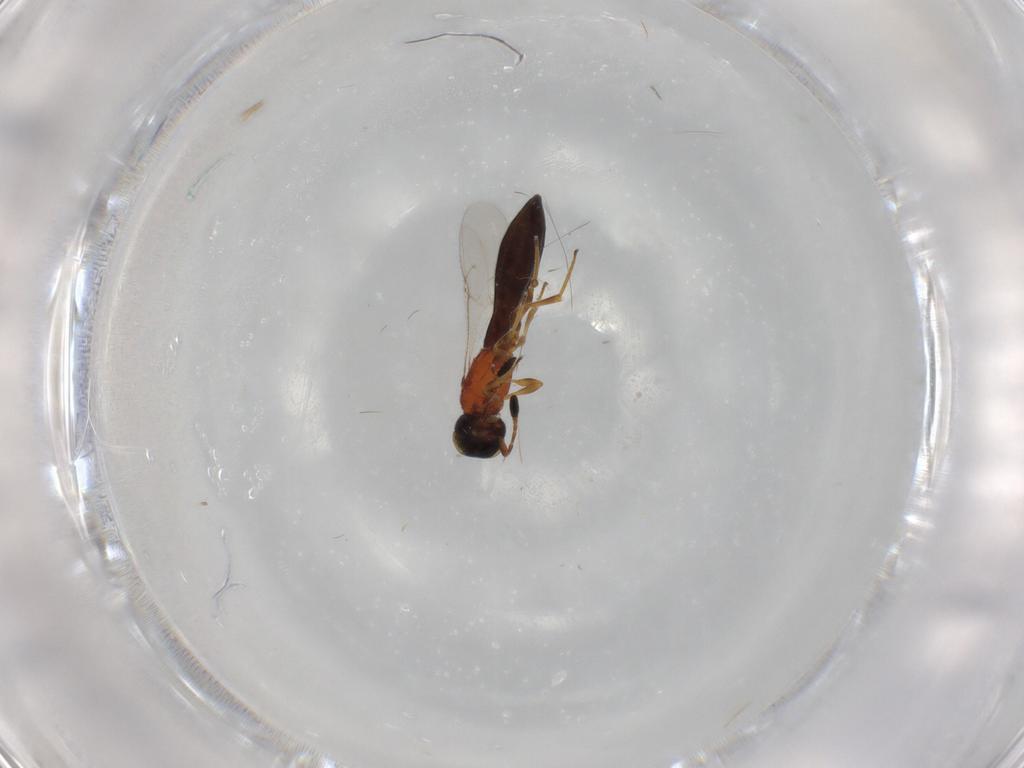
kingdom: Animalia
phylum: Arthropoda
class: Insecta
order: Hymenoptera
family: Scelionidae
